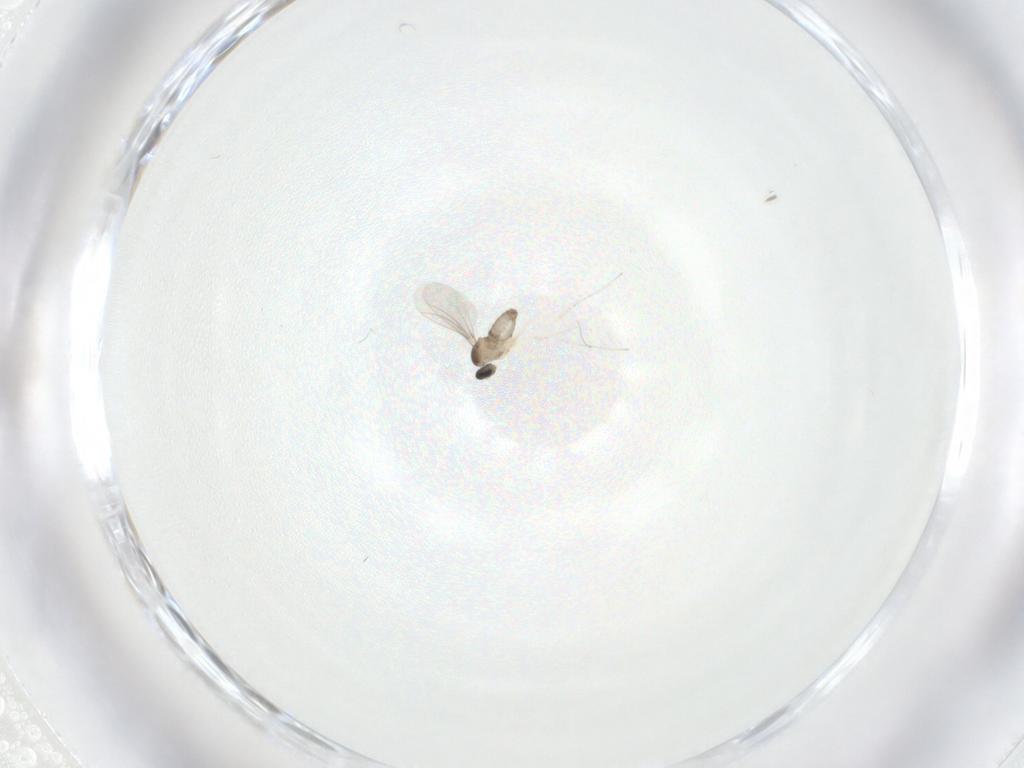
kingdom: Animalia
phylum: Arthropoda
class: Insecta
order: Diptera
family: Cecidomyiidae
